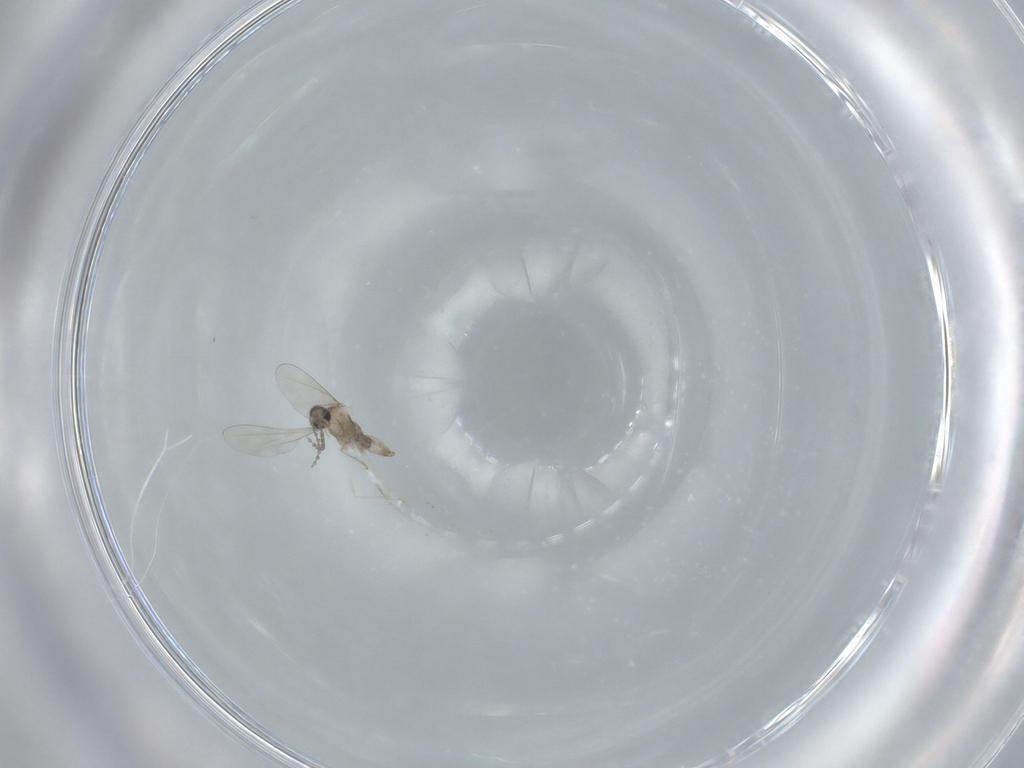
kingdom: Animalia
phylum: Arthropoda
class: Insecta
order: Diptera
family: Cecidomyiidae
